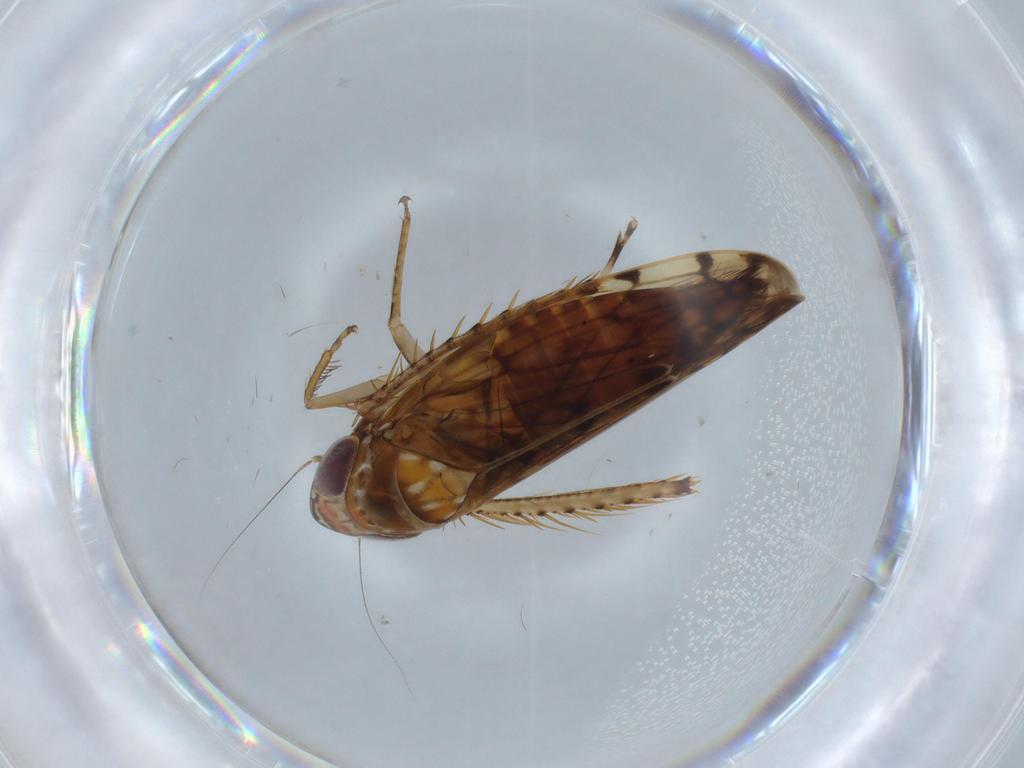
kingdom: Animalia
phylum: Arthropoda
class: Insecta
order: Hemiptera
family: Cicadellidae
